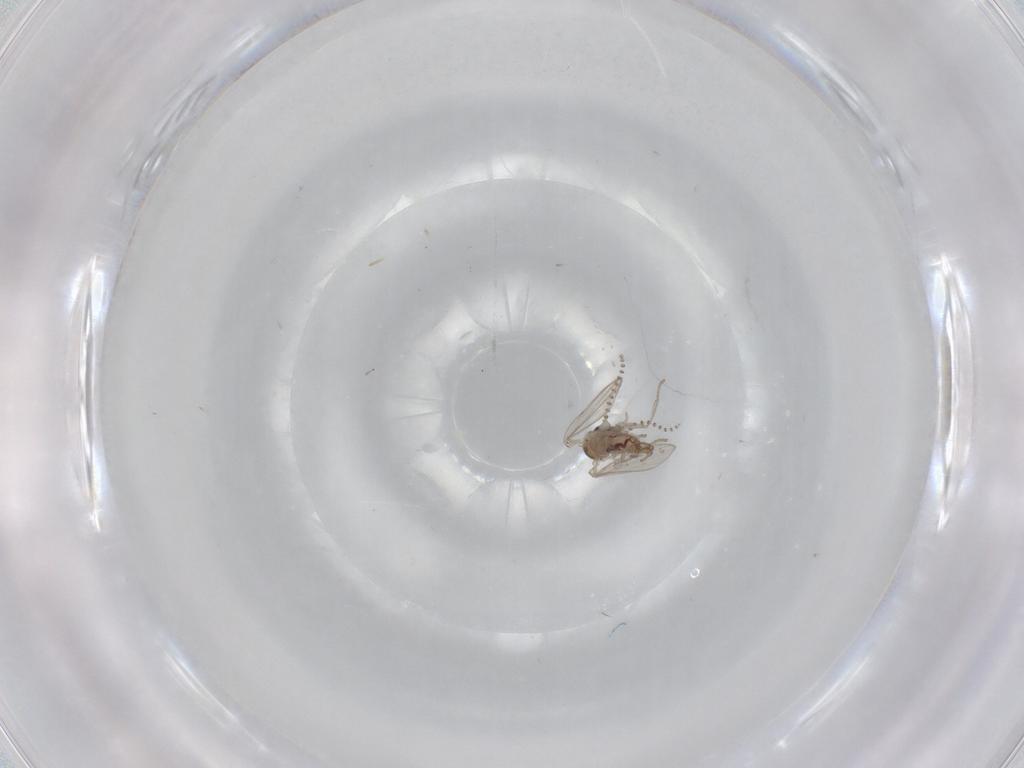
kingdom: Animalia
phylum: Arthropoda
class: Insecta
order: Diptera
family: Psychodidae
